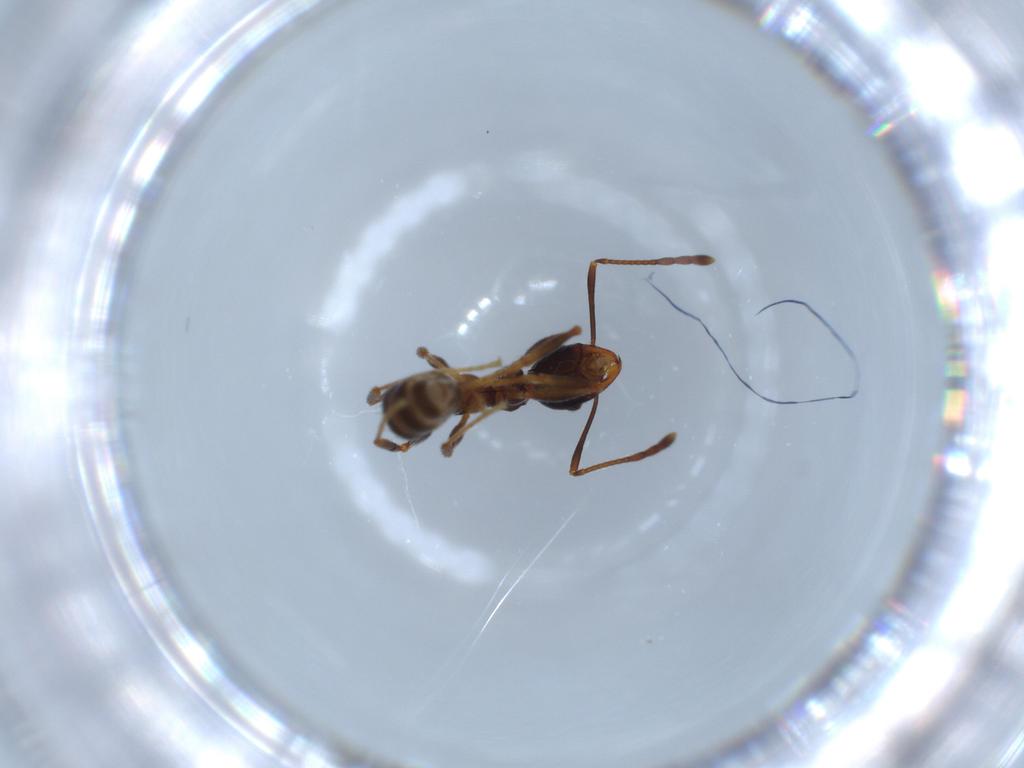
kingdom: Animalia
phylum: Arthropoda
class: Insecta
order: Hymenoptera
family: Formicidae
